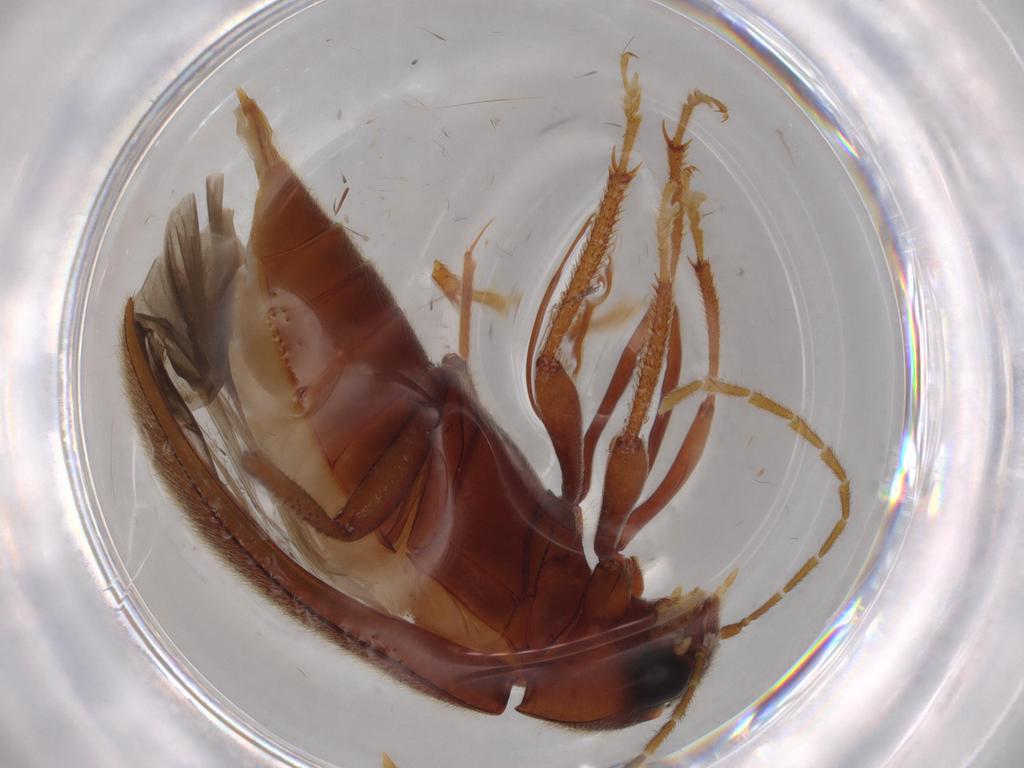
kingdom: Animalia
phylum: Arthropoda
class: Insecta
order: Coleoptera
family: Ptilodactylidae
